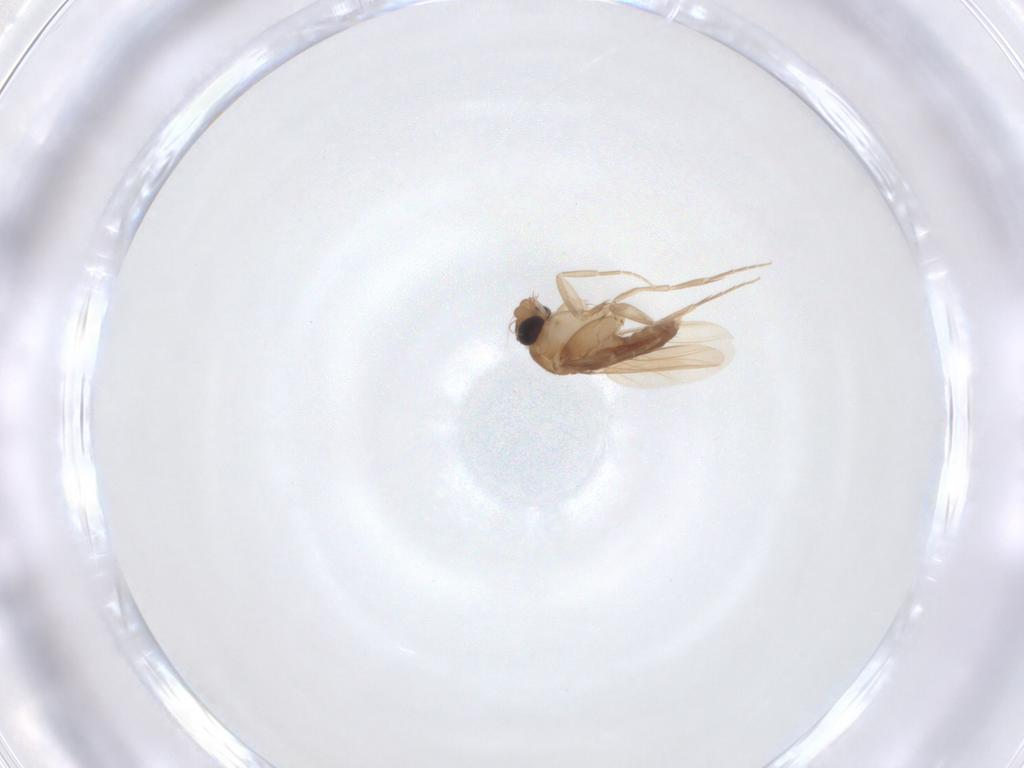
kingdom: Animalia
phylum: Arthropoda
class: Insecta
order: Diptera
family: Phoridae
